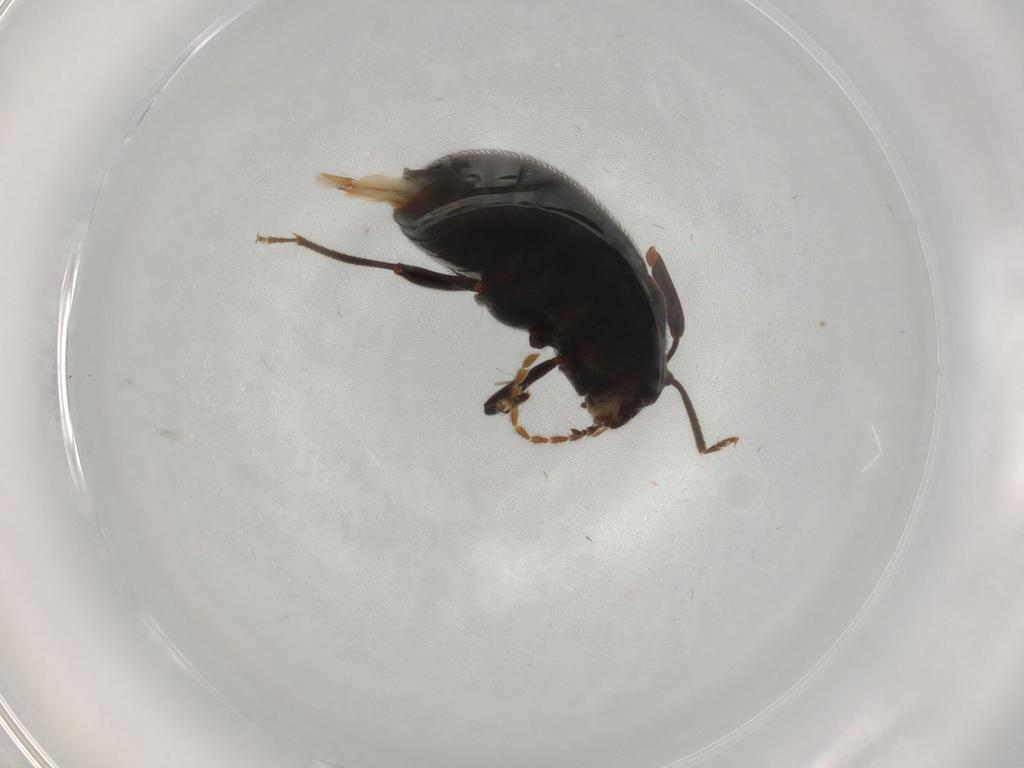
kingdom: Animalia
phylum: Arthropoda
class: Insecta
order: Coleoptera
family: Ptilodactylidae
